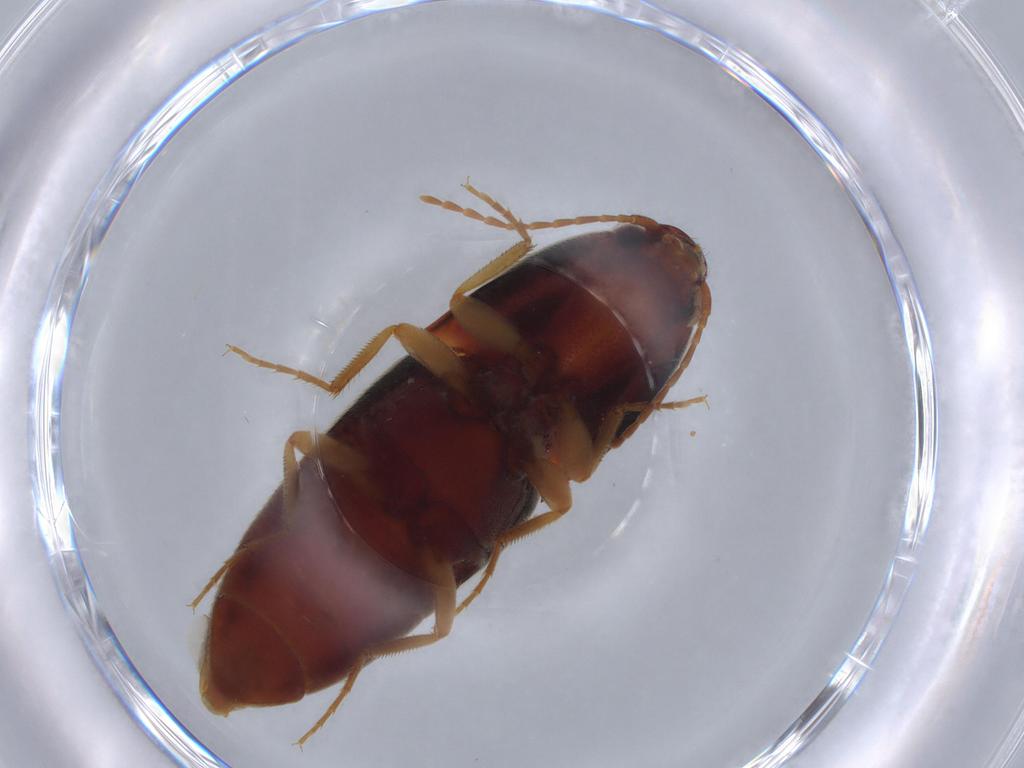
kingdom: Animalia
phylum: Arthropoda
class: Insecta
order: Coleoptera
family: Elateridae
